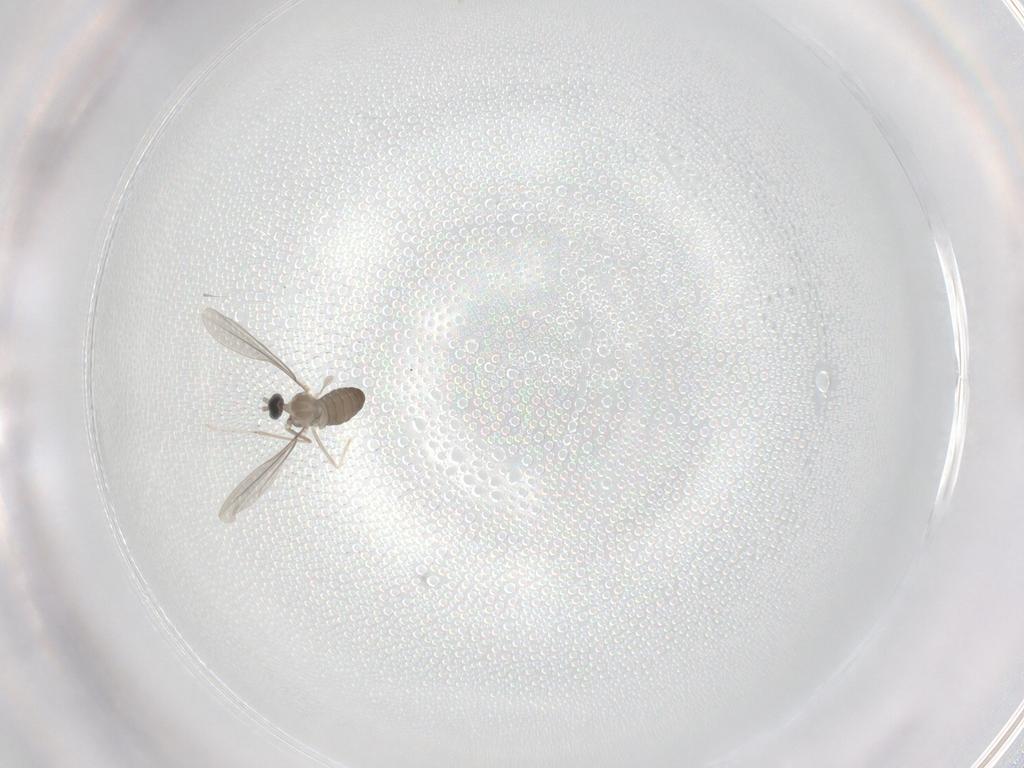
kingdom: Animalia
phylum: Arthropoda
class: Insecta
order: Diptera
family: Cecidomyiidae
